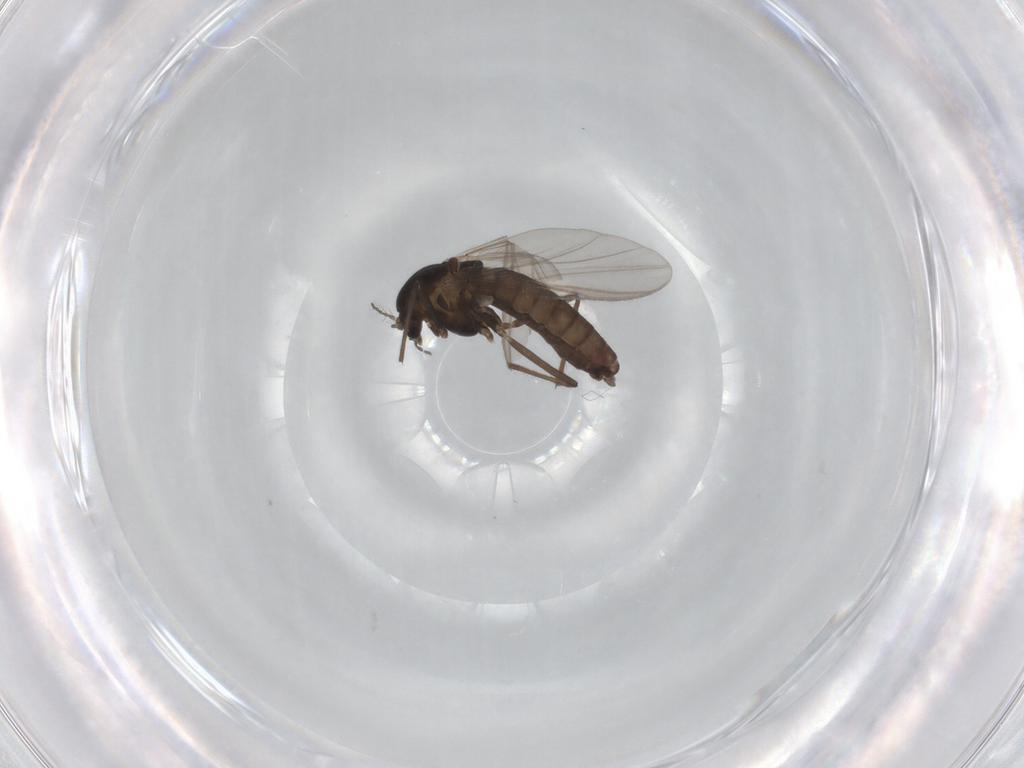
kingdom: Animalia
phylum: Arthropoda
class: Insecta
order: Diptera
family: Chironomidae
